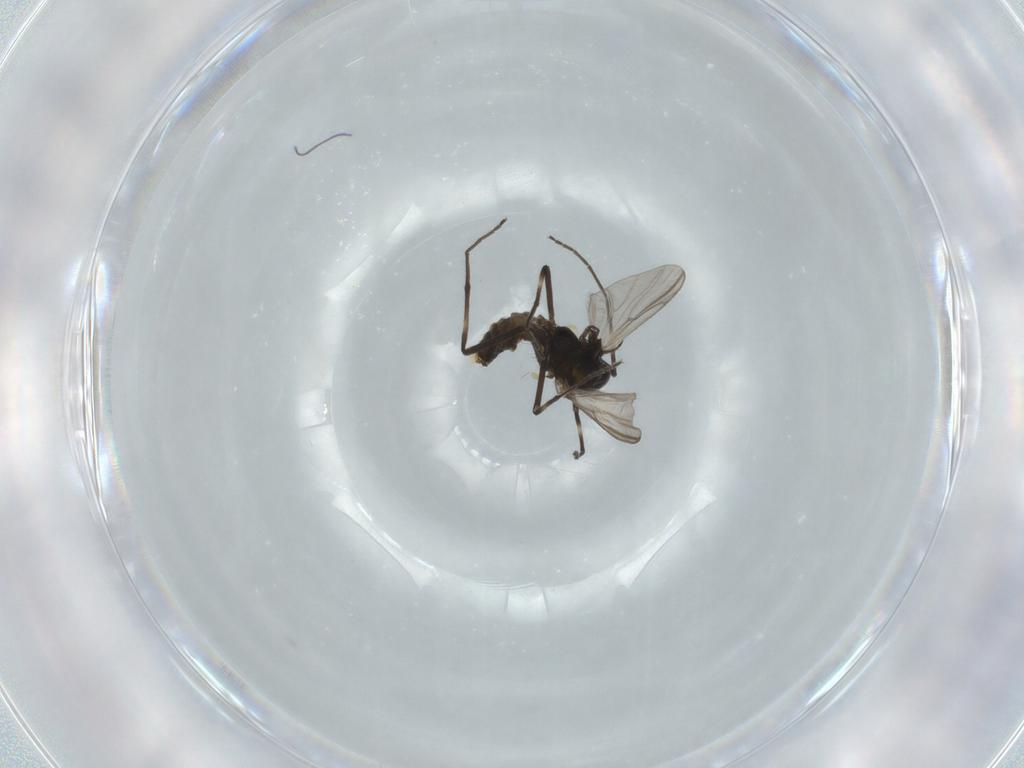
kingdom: Animalia
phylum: Arthropoda
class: Insecta
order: Diptera
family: Chironomidae
